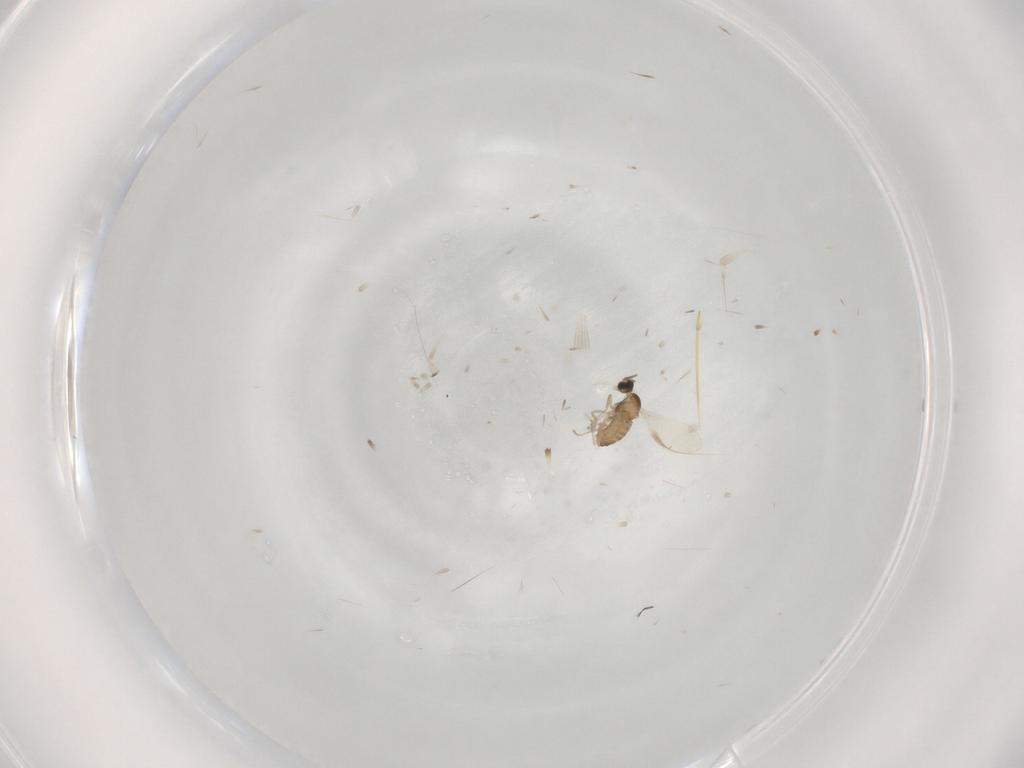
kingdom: Animalia
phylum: Arthropoda
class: Insecta
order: Diptera
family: Cecidomyiidae
